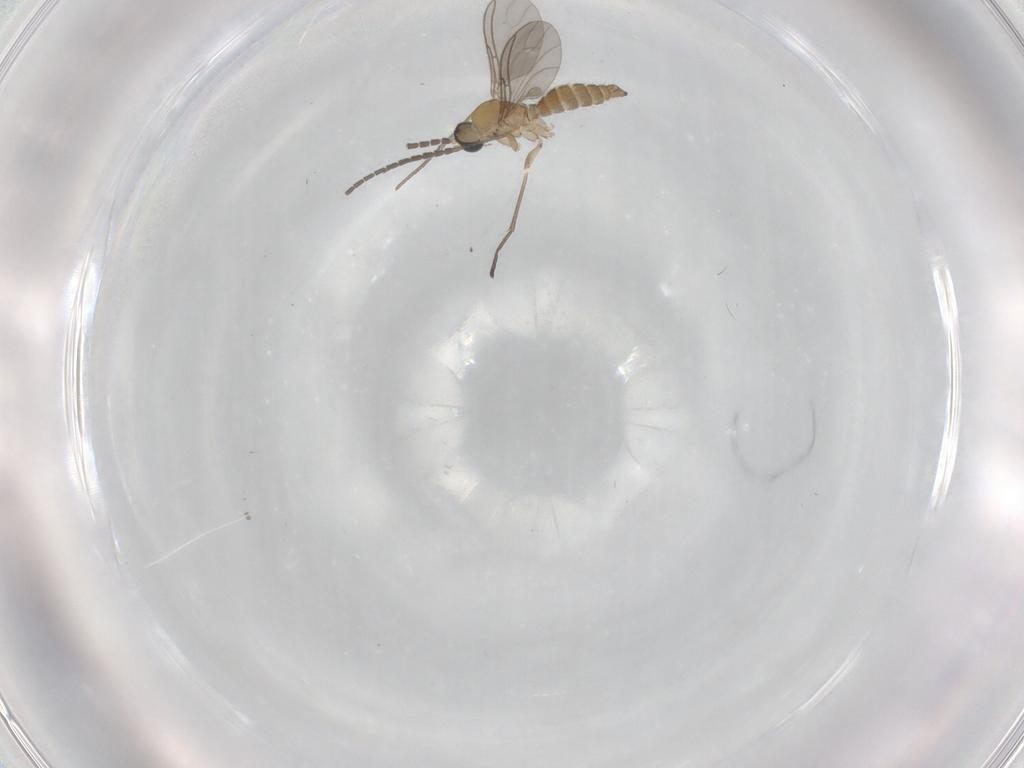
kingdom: Animalia
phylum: Arthropoda
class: Insecta
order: Diptera
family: Sciaridae
